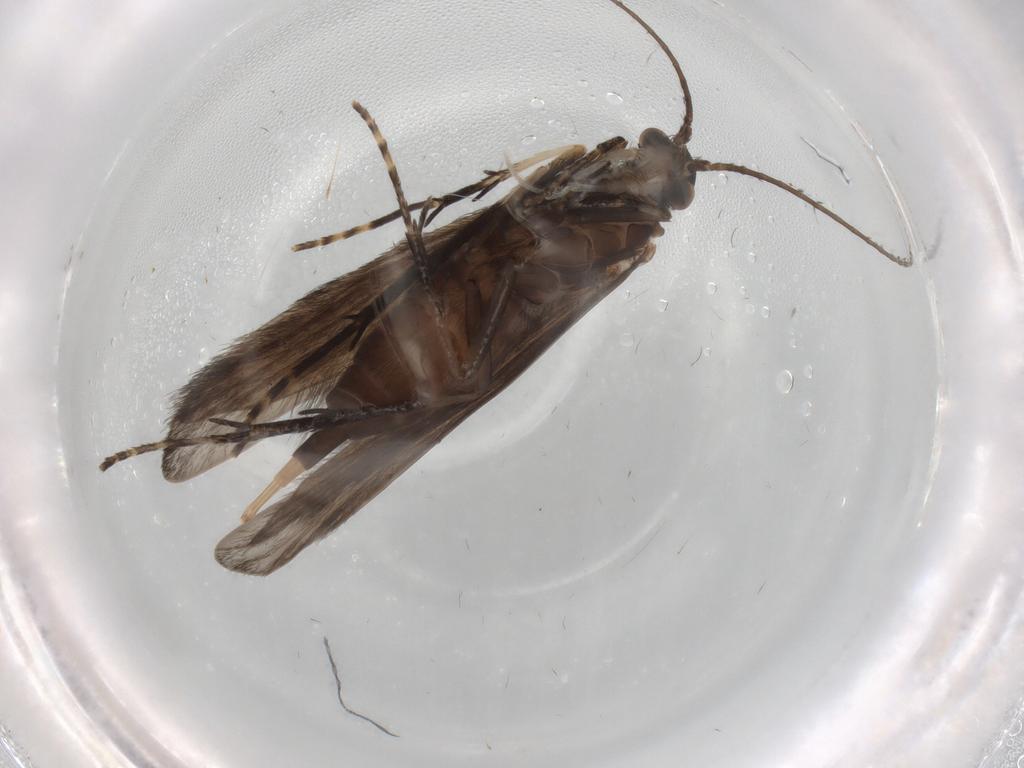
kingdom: Animalia
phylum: Arthropoda
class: Insecta
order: Trichoptera
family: Xiphocentronidae
